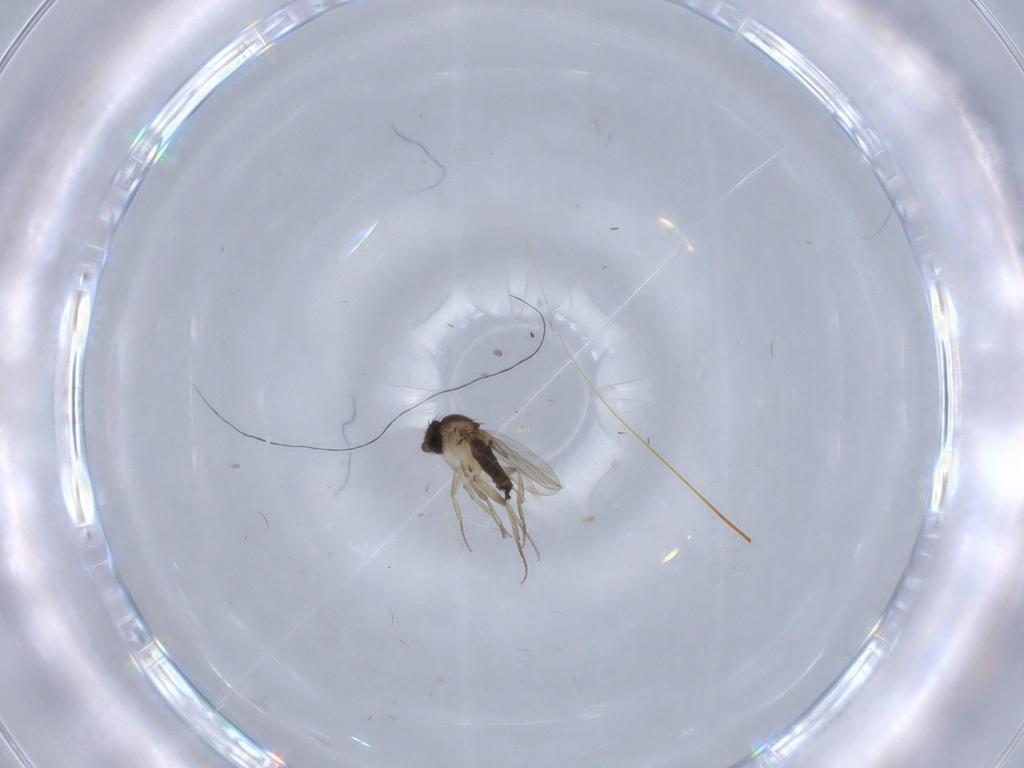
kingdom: Animalia
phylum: Arthropoda
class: Insecta
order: Diptera
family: Phoridae
